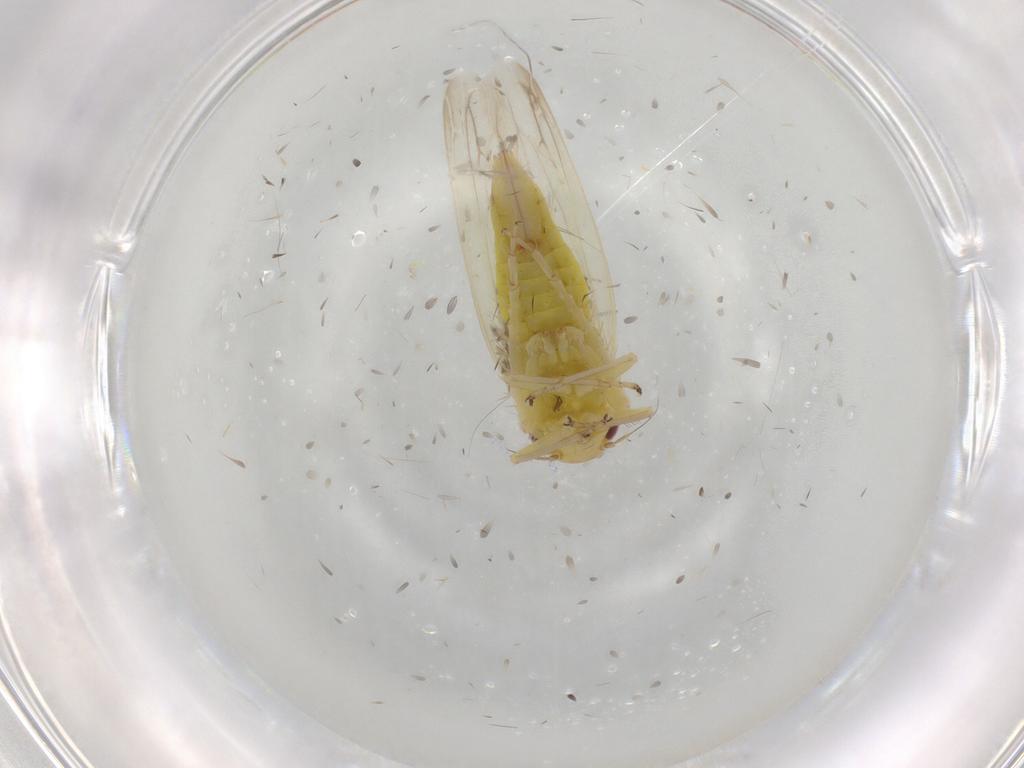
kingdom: Animalia
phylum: Arthropoda
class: Insecta
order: Hemiptera
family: Cicadellidae
